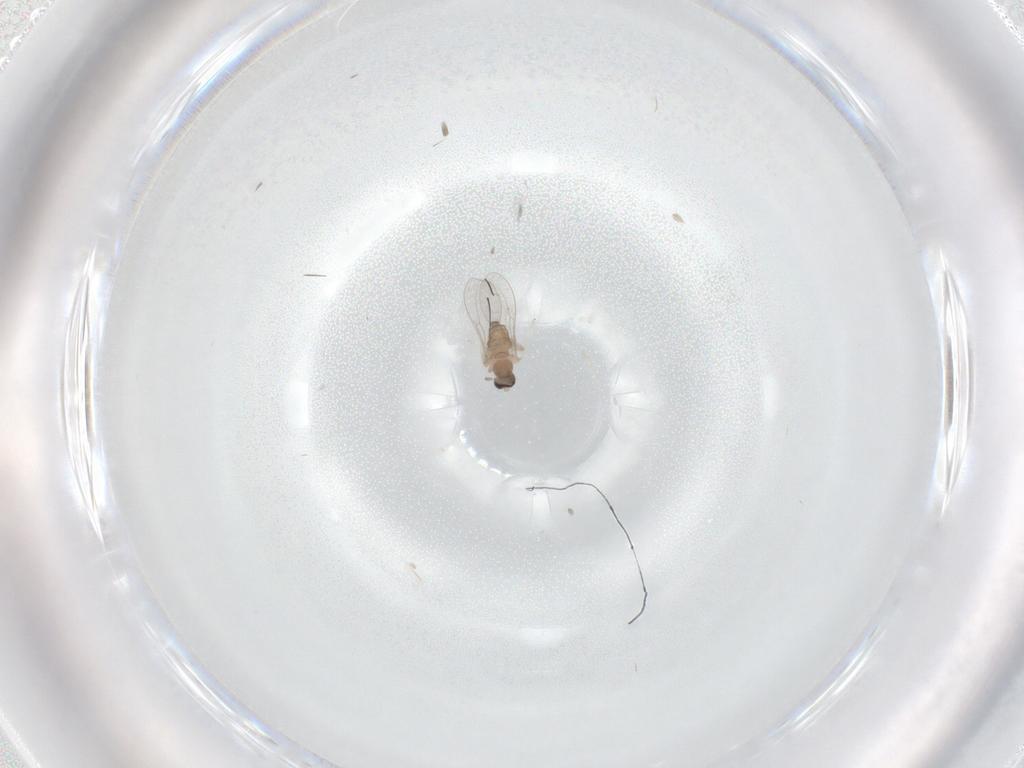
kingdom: Animalia
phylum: Arthropoda
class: Insecta
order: Diptera
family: Cecidomyiidae
